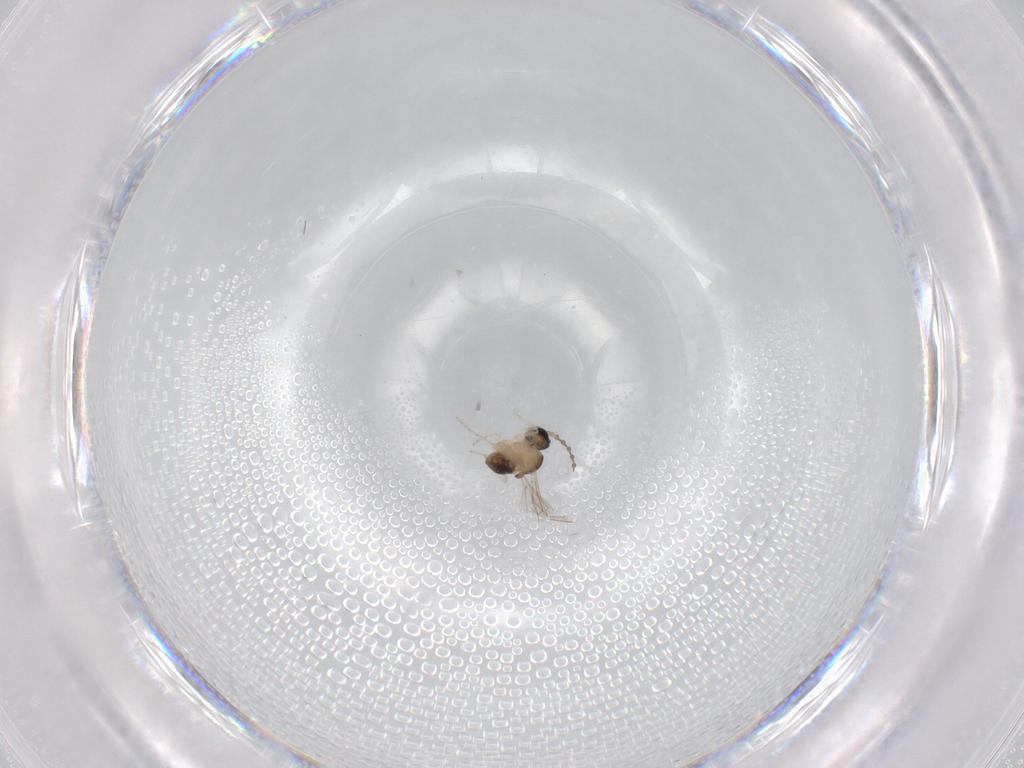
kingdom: Animalia
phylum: Arthropoda
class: Insecta
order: Diptera
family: Cecidomyiidae
